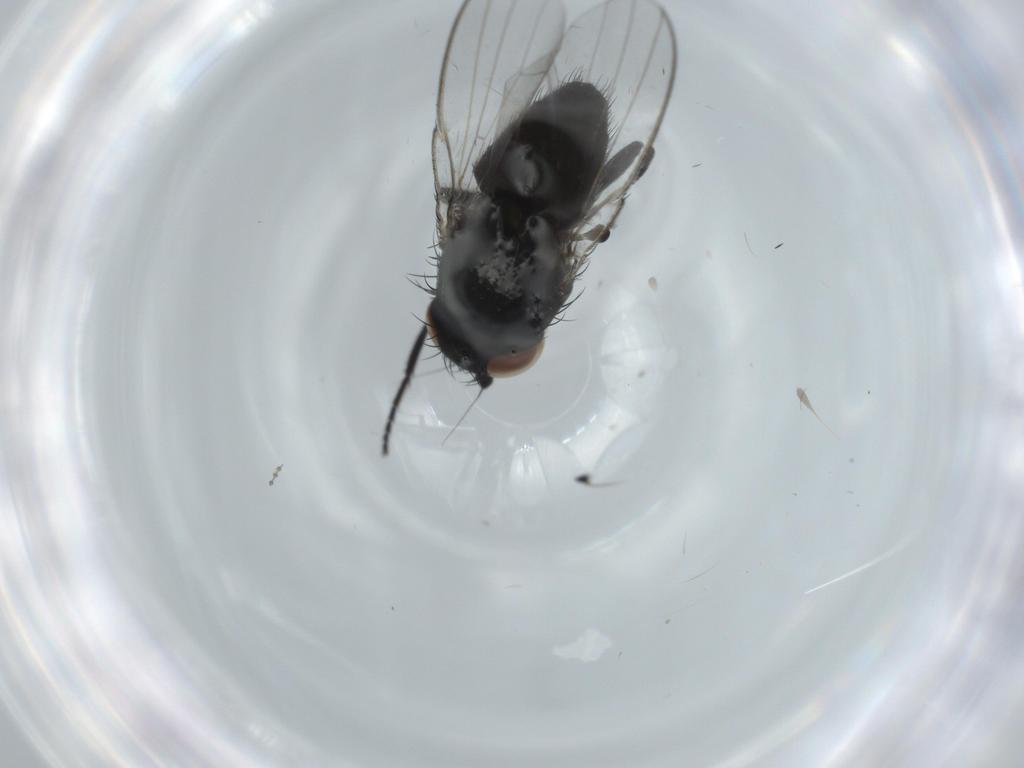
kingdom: Animalia
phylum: Arthropoda
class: Insecta
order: Diptera
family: Milichiidae
